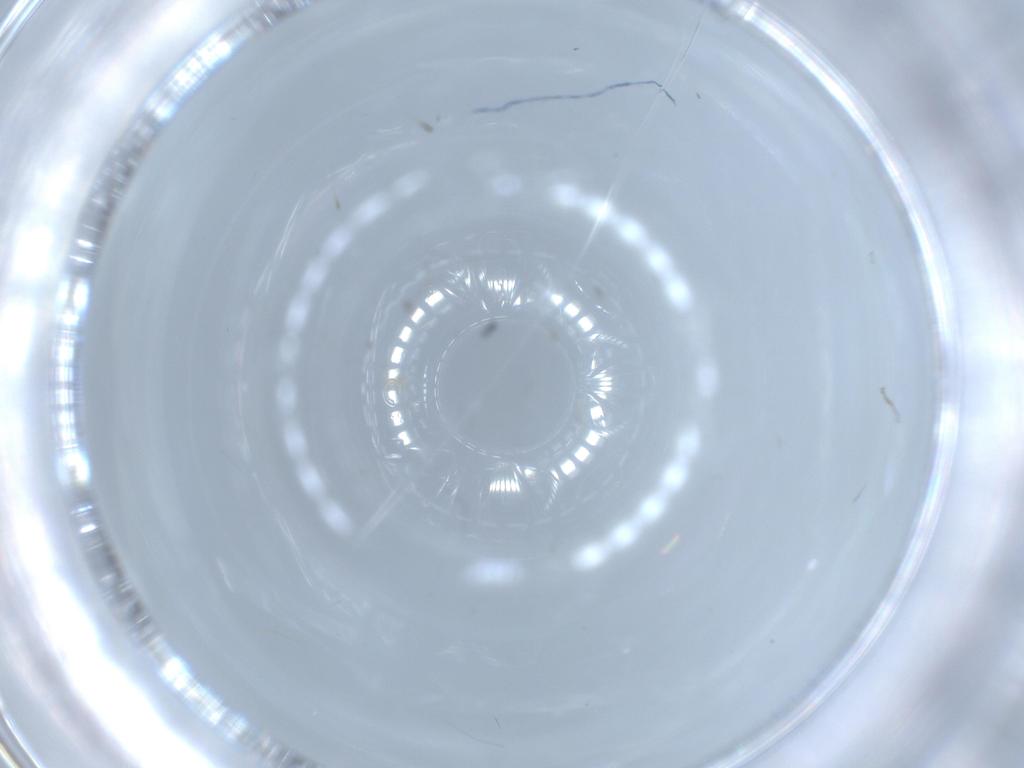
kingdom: Animalia
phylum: Arthropoda
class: Insecta
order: Diptera
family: Sciaridae
